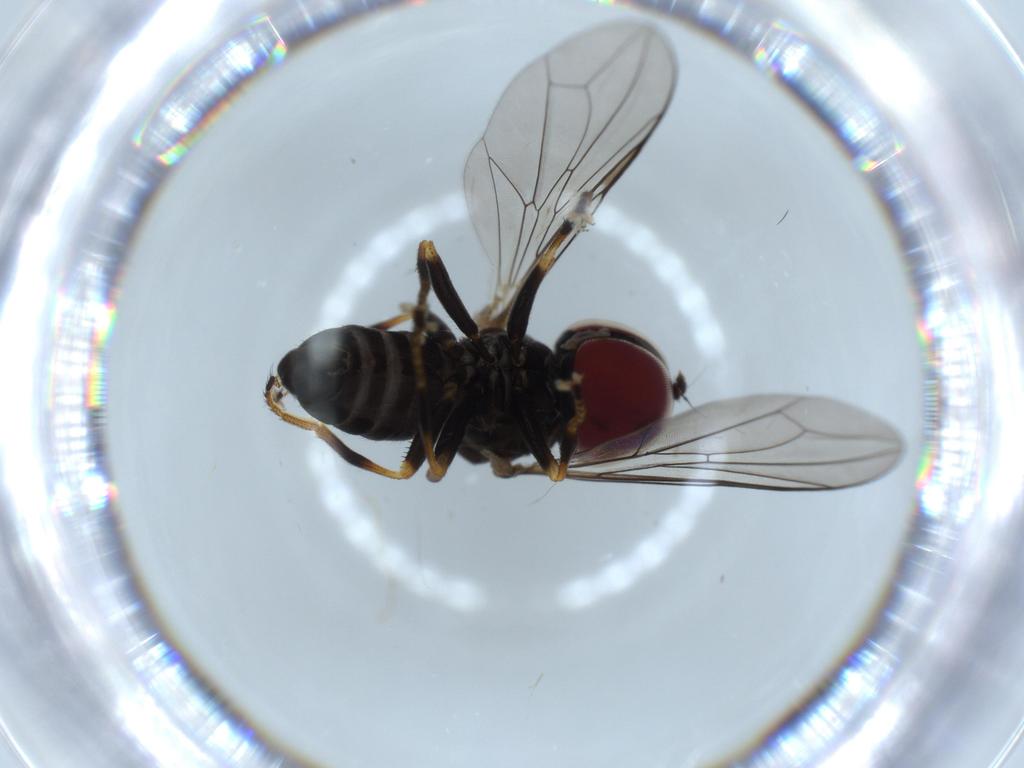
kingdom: Animalia
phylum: Arthropoda
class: Insecta
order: Diptera
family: Pipunculidae
